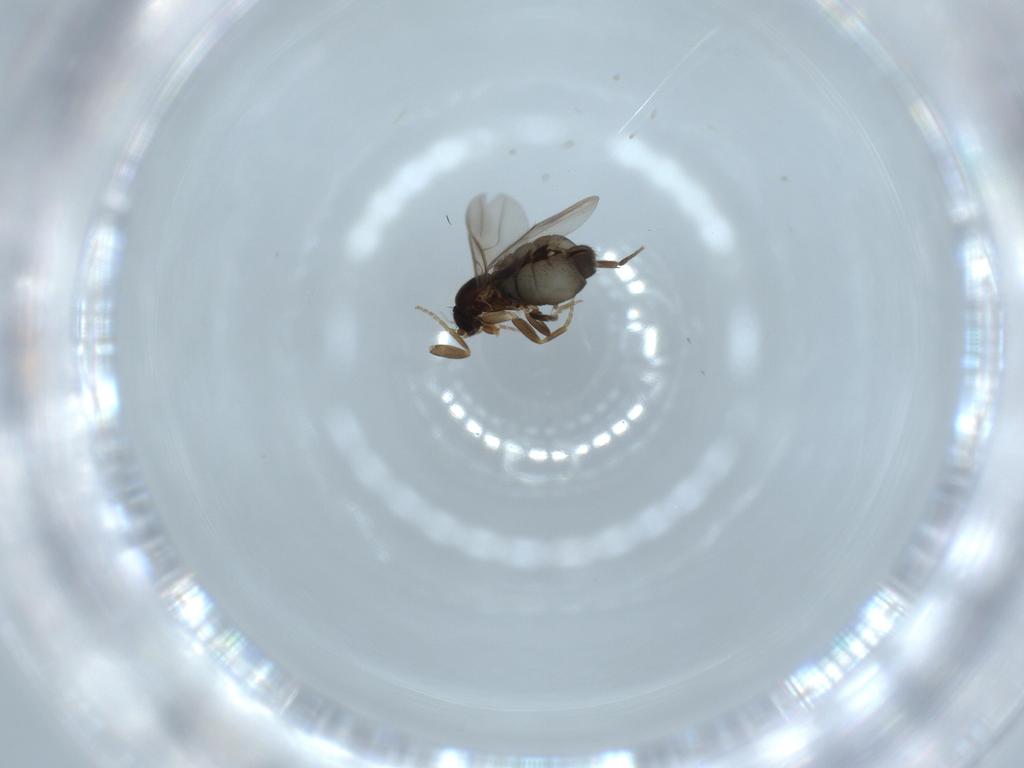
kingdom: Animalia
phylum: Arthropoda
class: Insecta
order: Diptera
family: Phoridae
